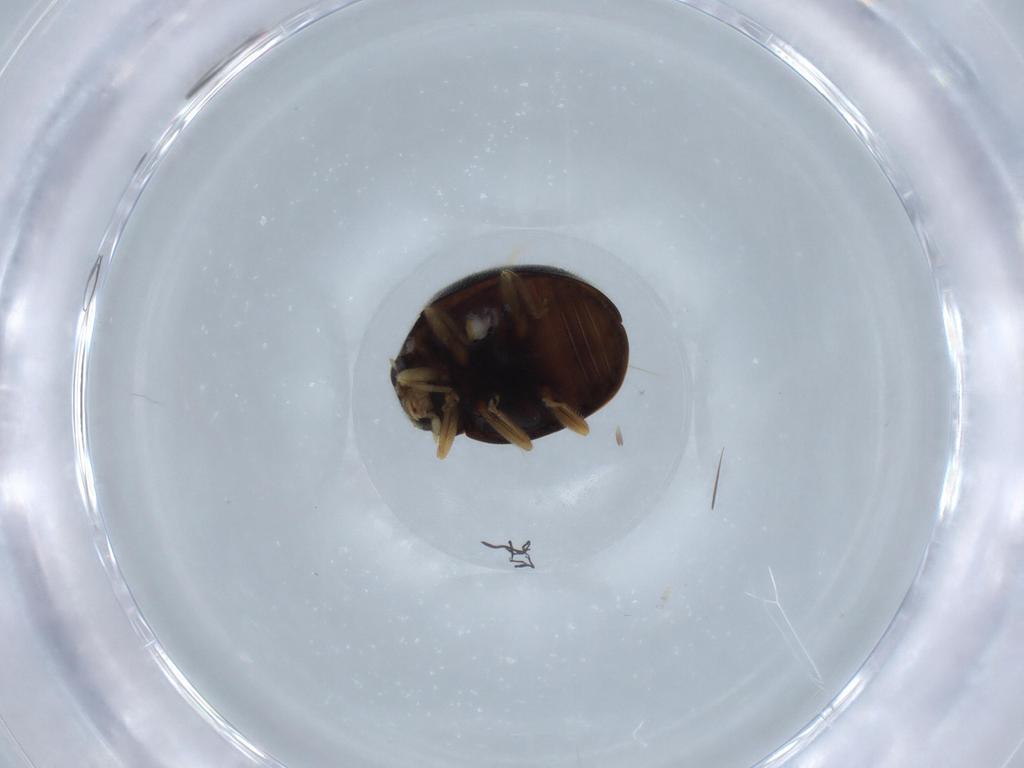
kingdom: Animalia
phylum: Arthropoda
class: Insecta
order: Coleoptera
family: Coccinellidae
